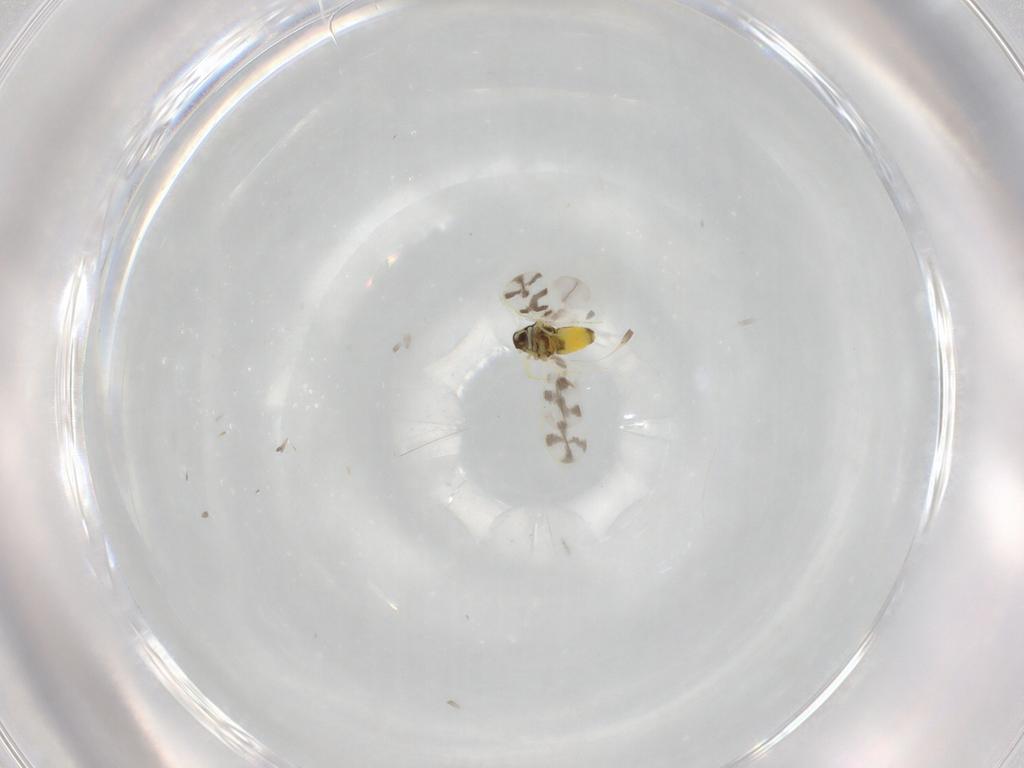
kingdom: Animalia
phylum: Arthropoda
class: Insecta
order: Hemiptera
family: Aleyrodidae
